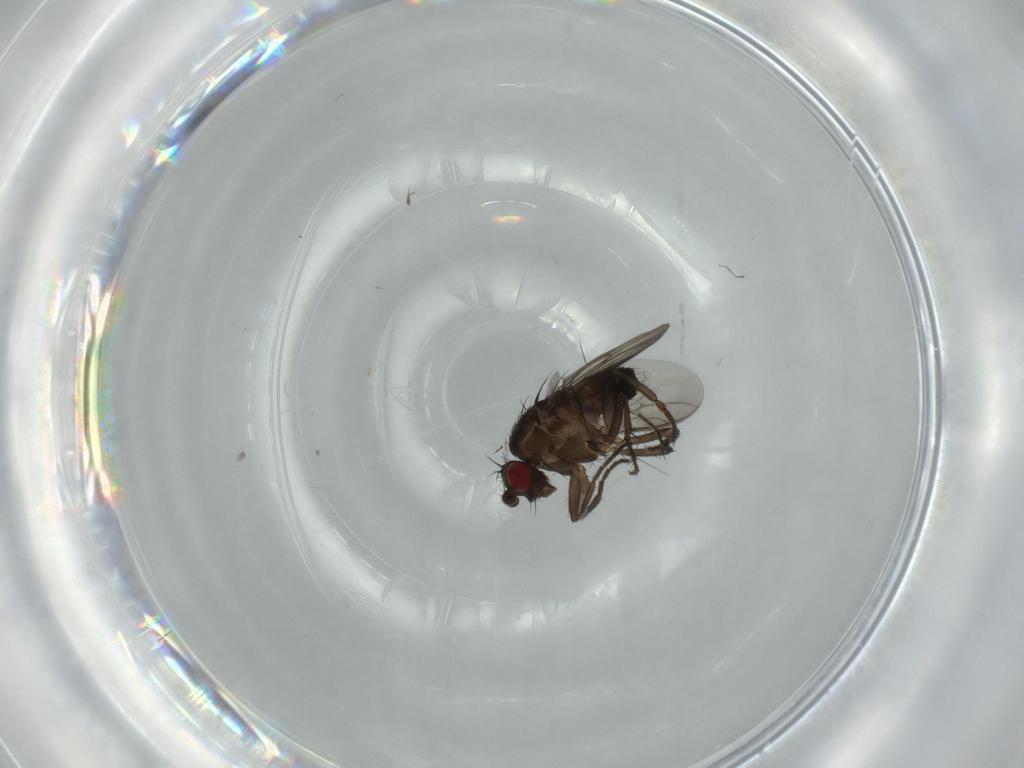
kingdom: Animalia
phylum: Arthropoda
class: Insecta
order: Diptera
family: Sphaeroceridae
